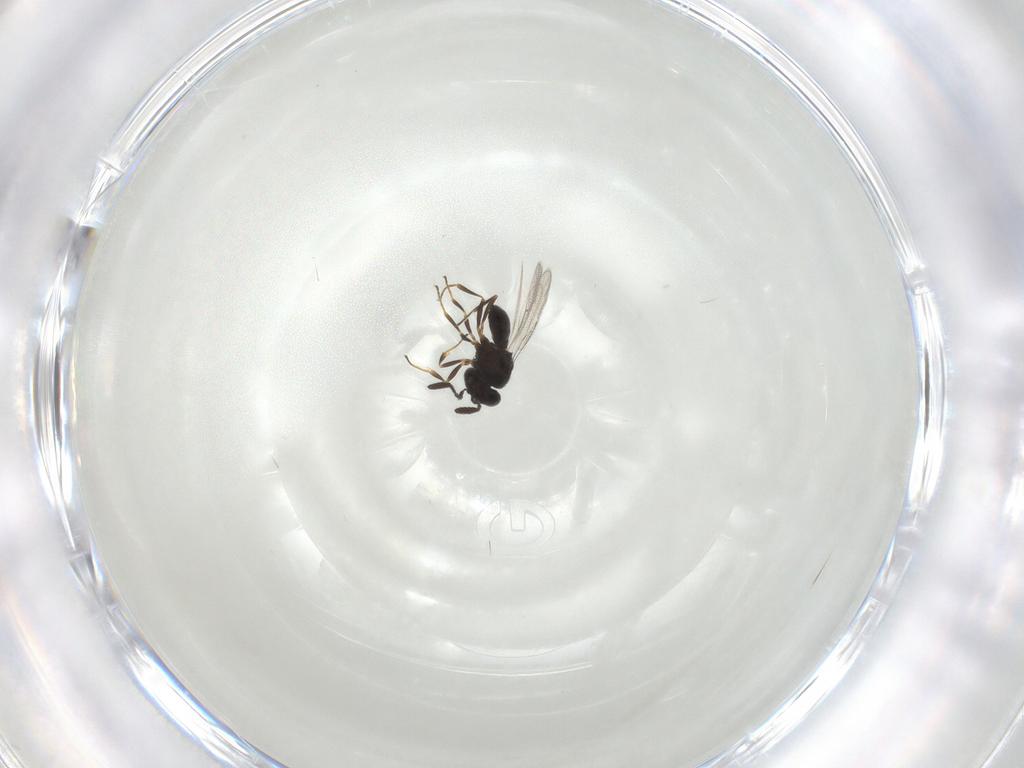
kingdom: Animalia
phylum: Arthropoda
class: Insecta
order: Hymenoptera
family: Scelionidae
